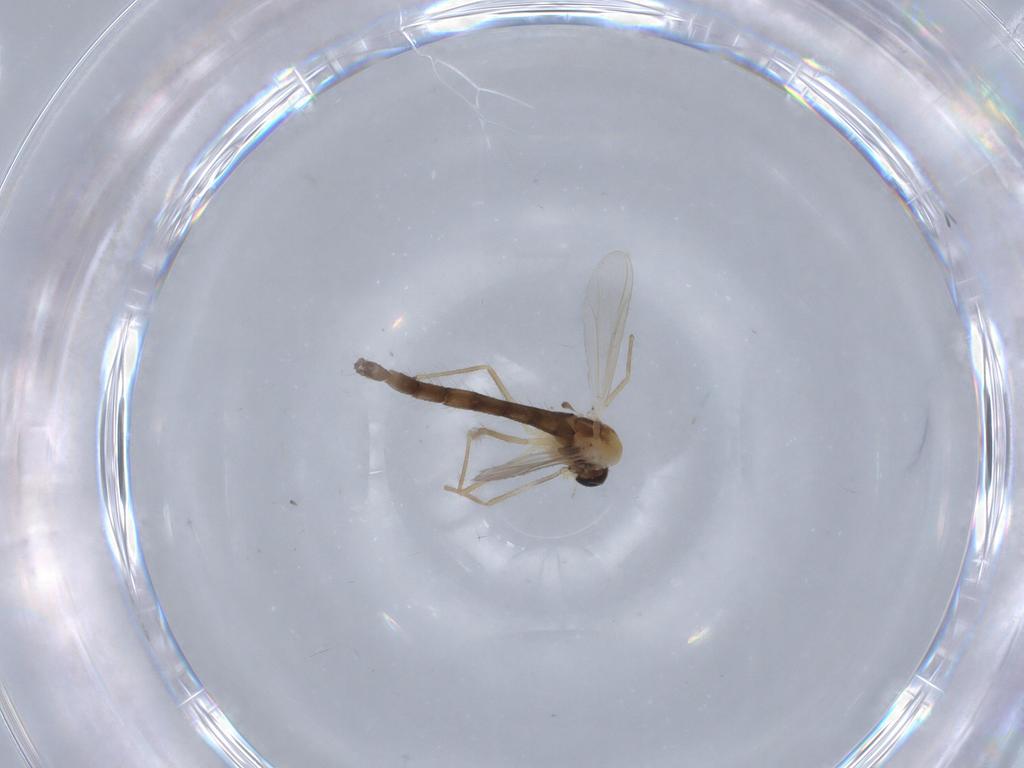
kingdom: Animalia
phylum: Arthropoda
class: Insecta
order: Diptera
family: Chironomidae
